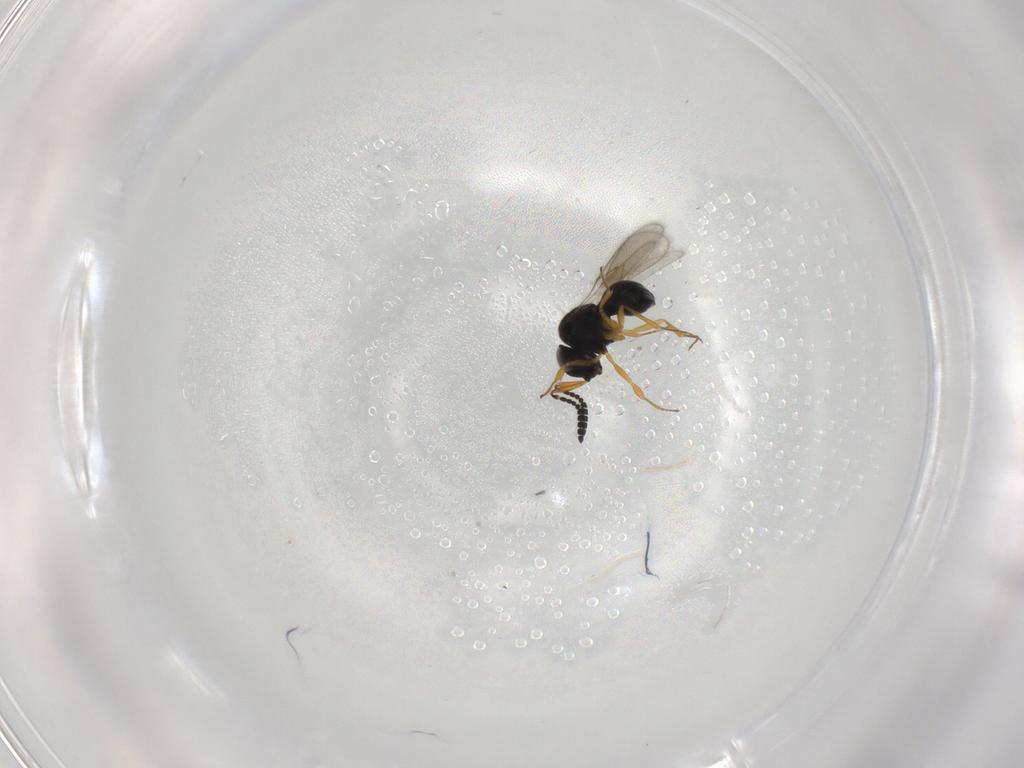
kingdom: Animalia
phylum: Arthropoda
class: Insecta
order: Hymenoptera
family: Scelionidae
